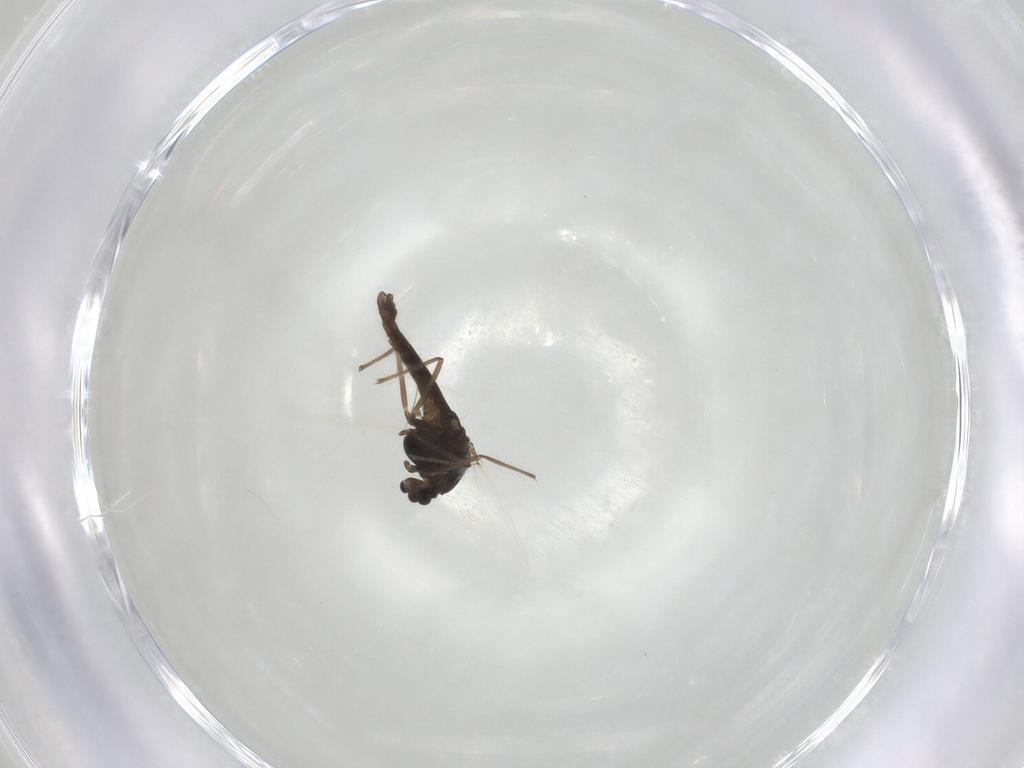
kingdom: Animalia
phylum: Arthropoda
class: Insecta
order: Diptera
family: Chironomidae
